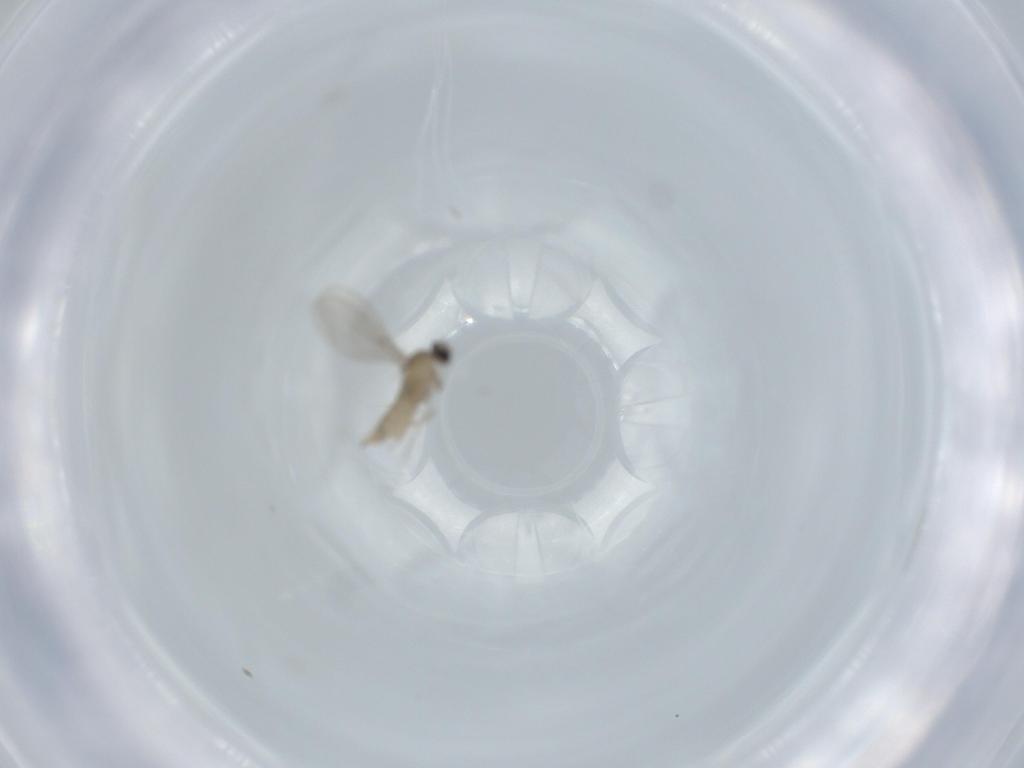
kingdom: Animalia
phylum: Arthropoda
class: Insecta
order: Diptera
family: Cecidomyiidae
